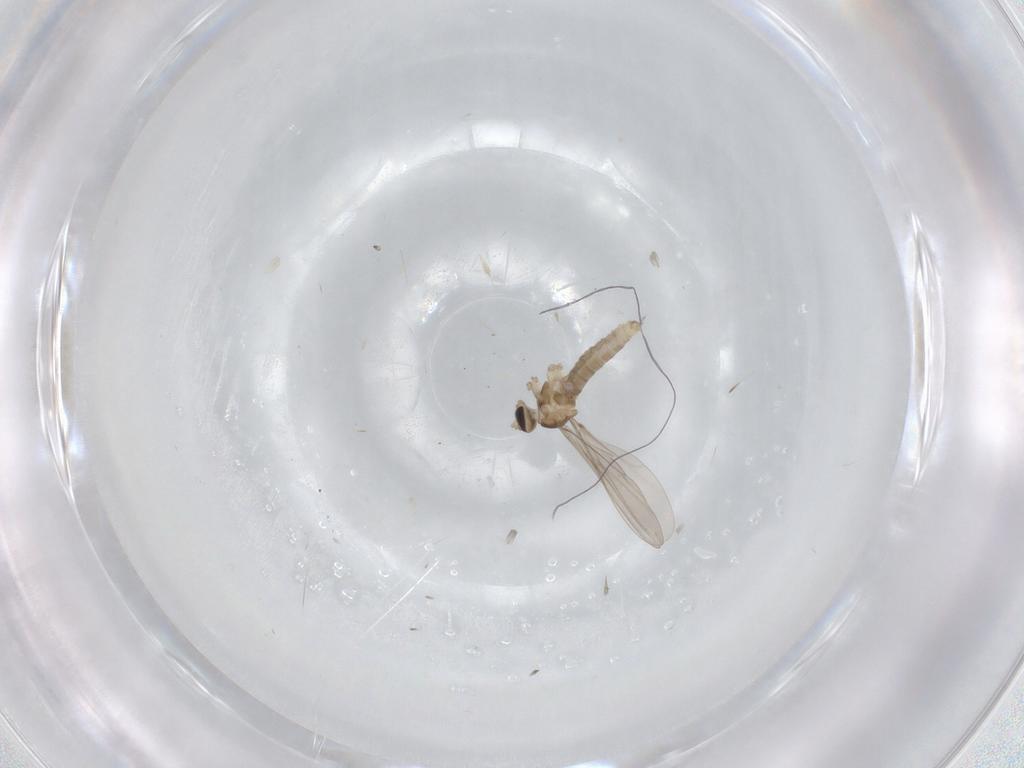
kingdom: Animalia
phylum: Arthropoda
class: Insecta
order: Diptera
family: Cecidomyiidae
